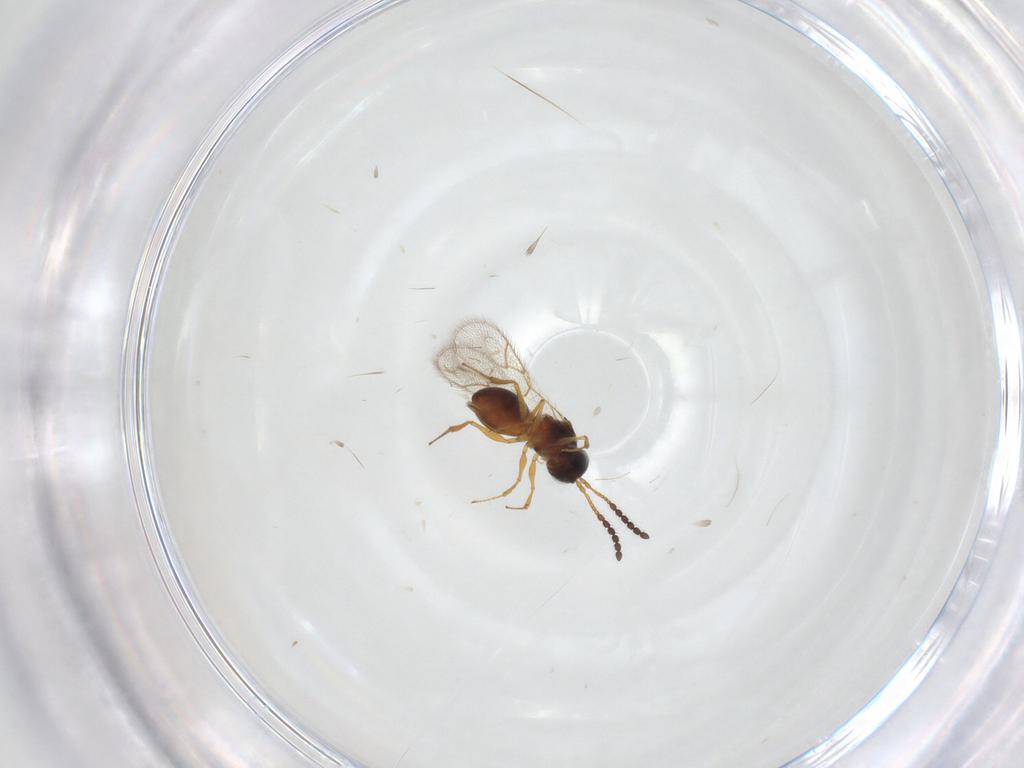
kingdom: Animalia
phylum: Arthropoda
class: Insecta
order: Hymenoptera
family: Figitidae
